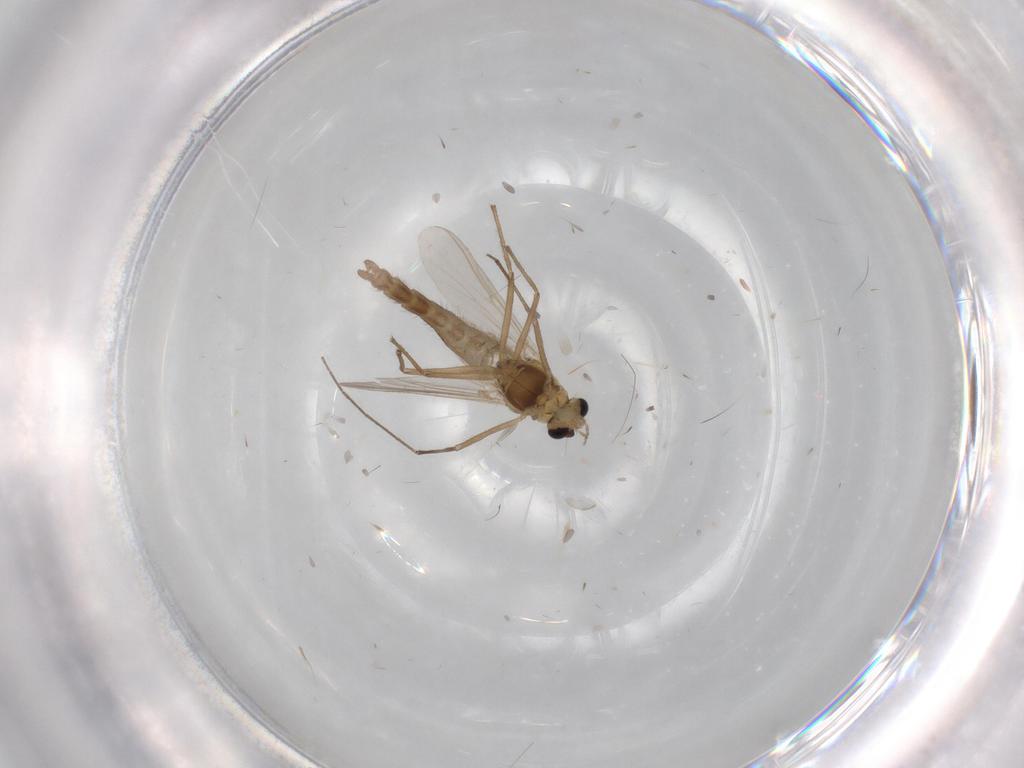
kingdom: Animalia
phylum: Arthropoda
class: Insecta
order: Diptera
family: Chironomidae
